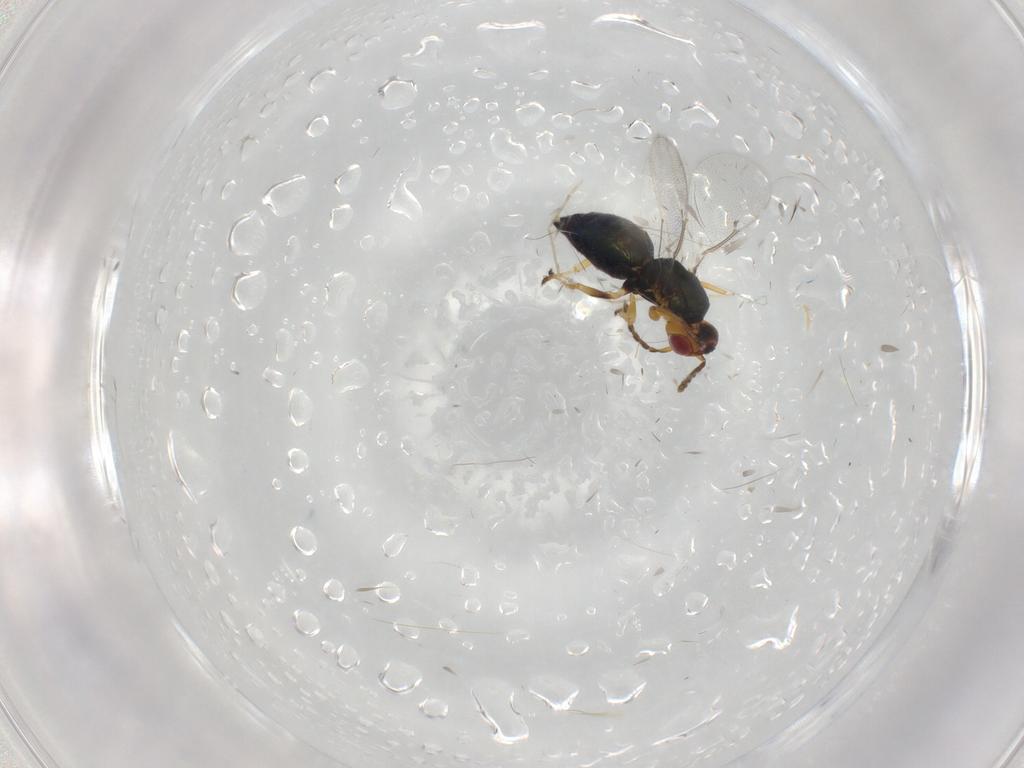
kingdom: Animalia
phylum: Arthropoda
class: Insecta
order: Hymenoptera
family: Eulophidae
